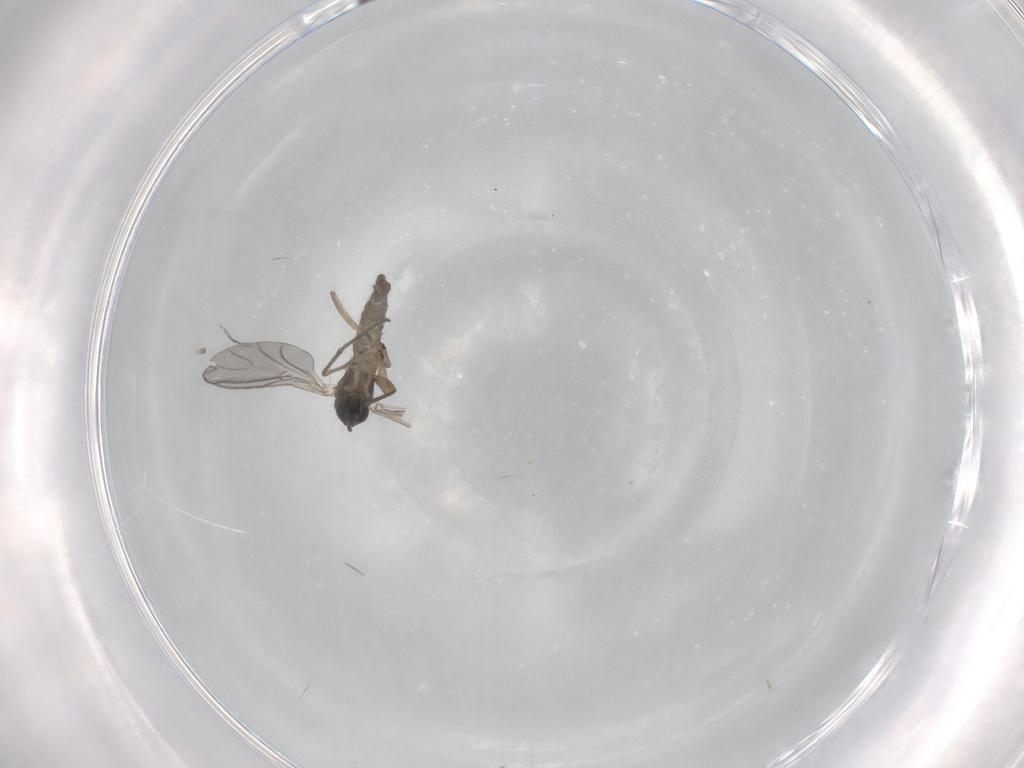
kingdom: Animalia
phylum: Arthropoda
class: Insecta
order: Diptera
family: Sciaridae
